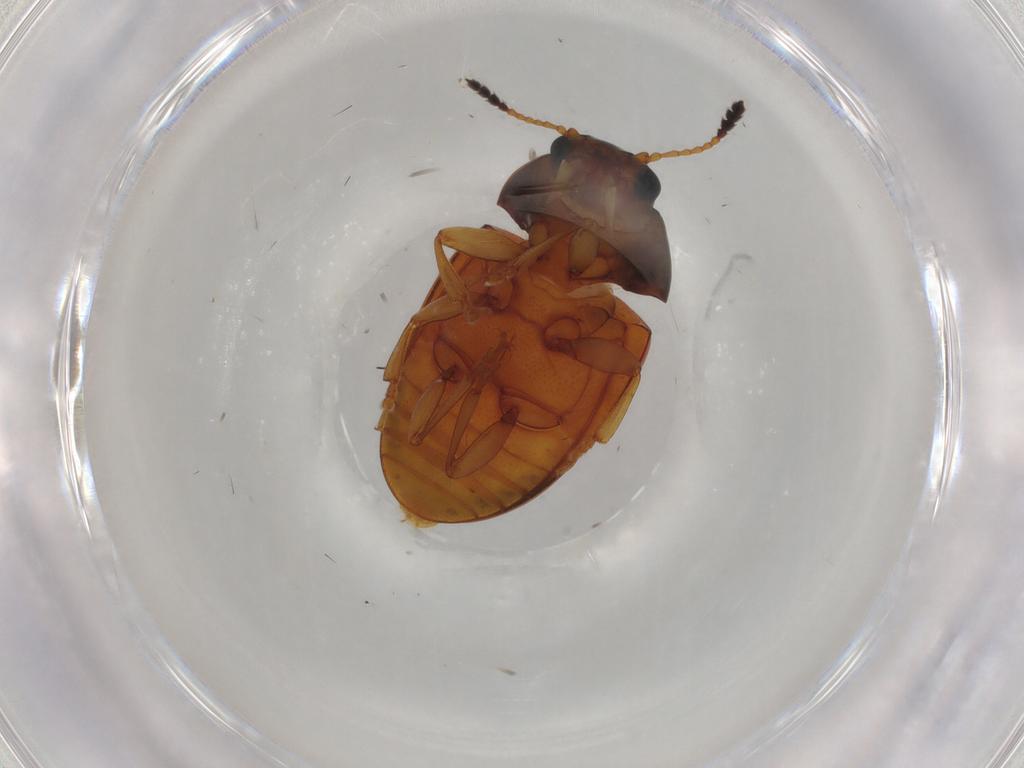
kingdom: Animalia
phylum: Arthropoda
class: Insecta
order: Coleoptera
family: Erotylidae
